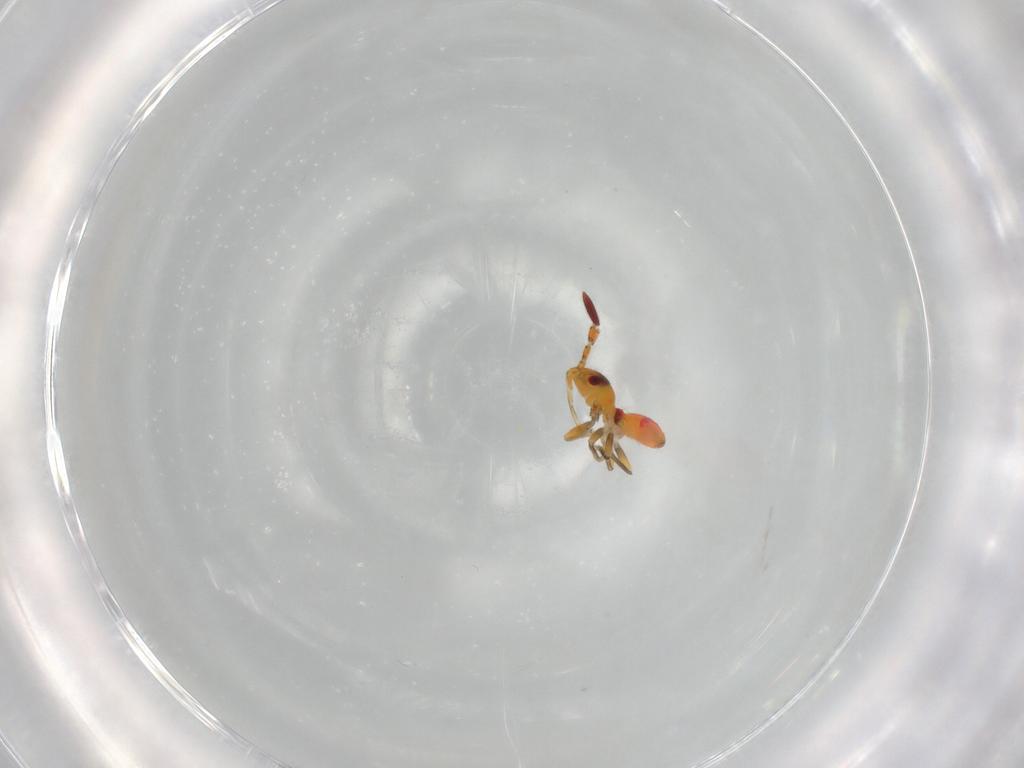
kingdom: Animalia
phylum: Arthropoda
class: Insecta
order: Hemiptera
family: Rhyparochromidae
